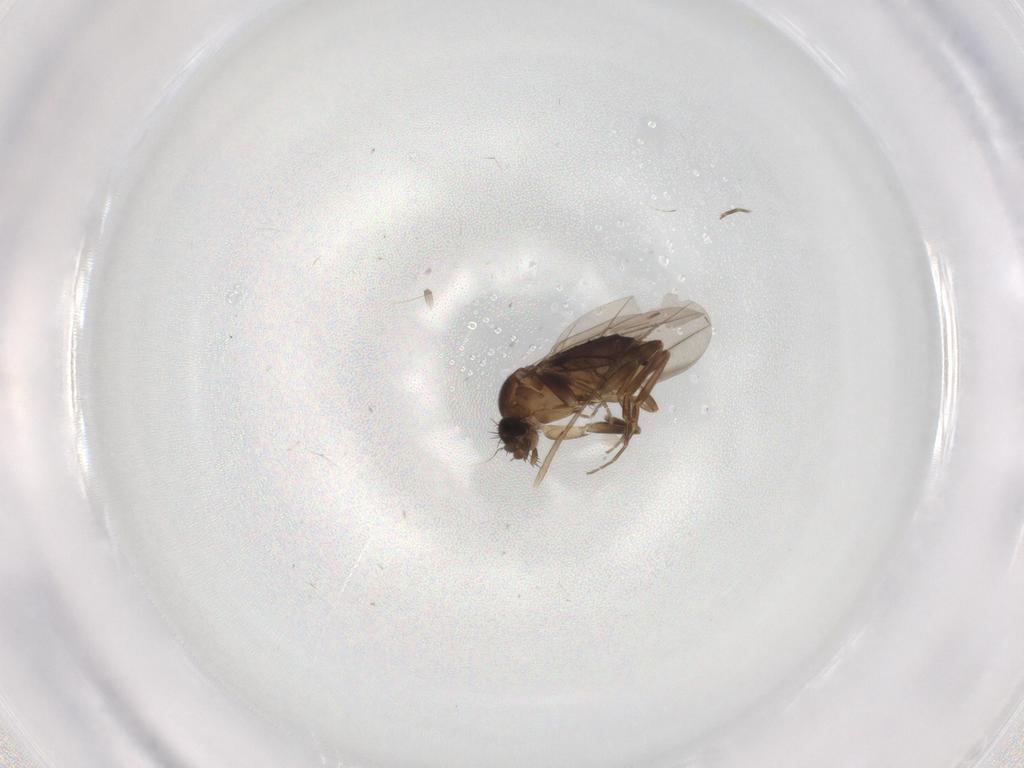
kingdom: Animalia
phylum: Arthropoda
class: Insecta
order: Diptera
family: Chironomidae
